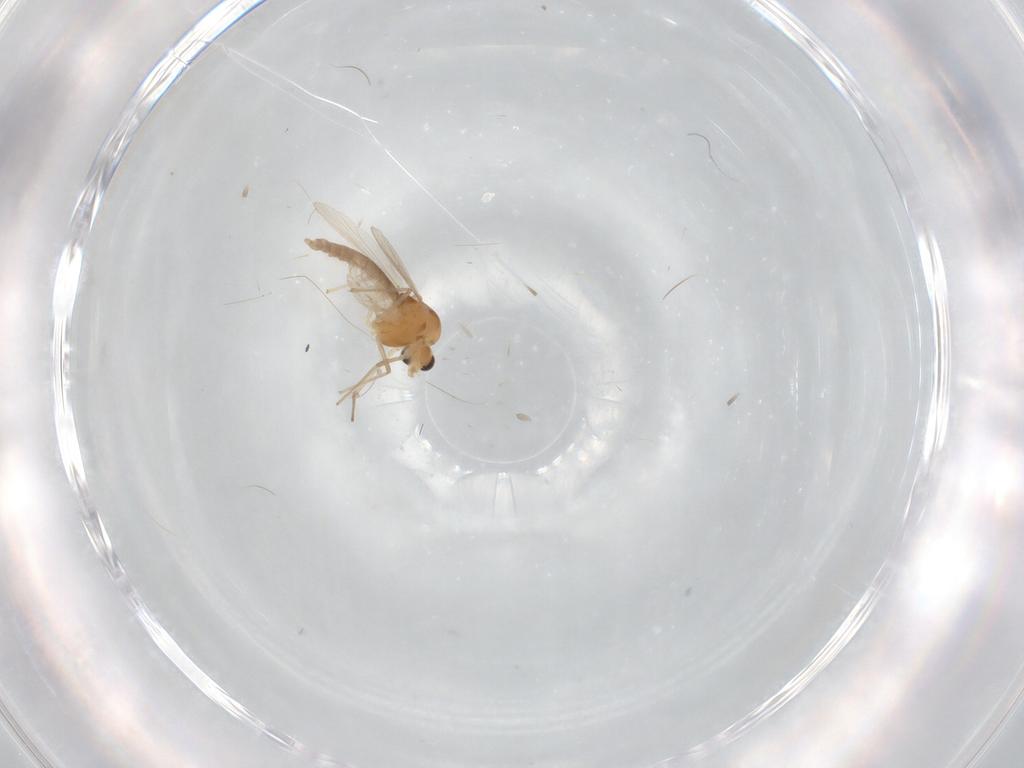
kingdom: Animalia
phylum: Arthropoda
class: Insecta
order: Diptera
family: Chironomidae
